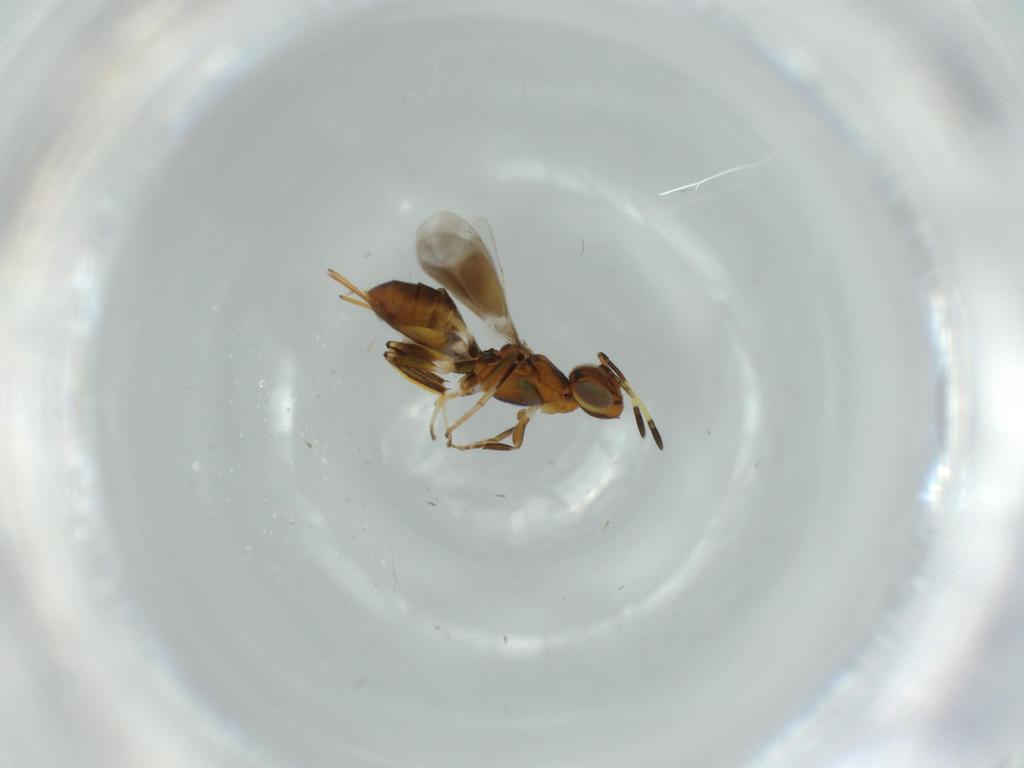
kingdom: Animalia
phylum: Arthropoda
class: Insecta
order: Hymenoptera
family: Eupelmidae
